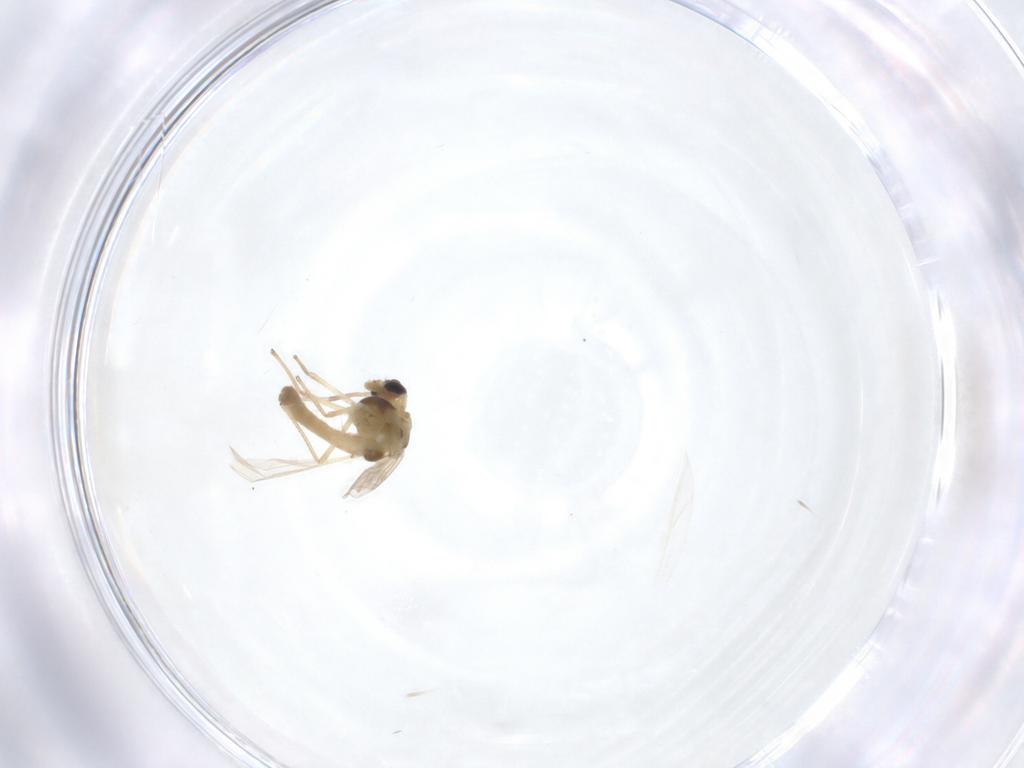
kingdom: Animalia
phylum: Arthropoda
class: Insecta
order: Diptera
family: Chironomidae
